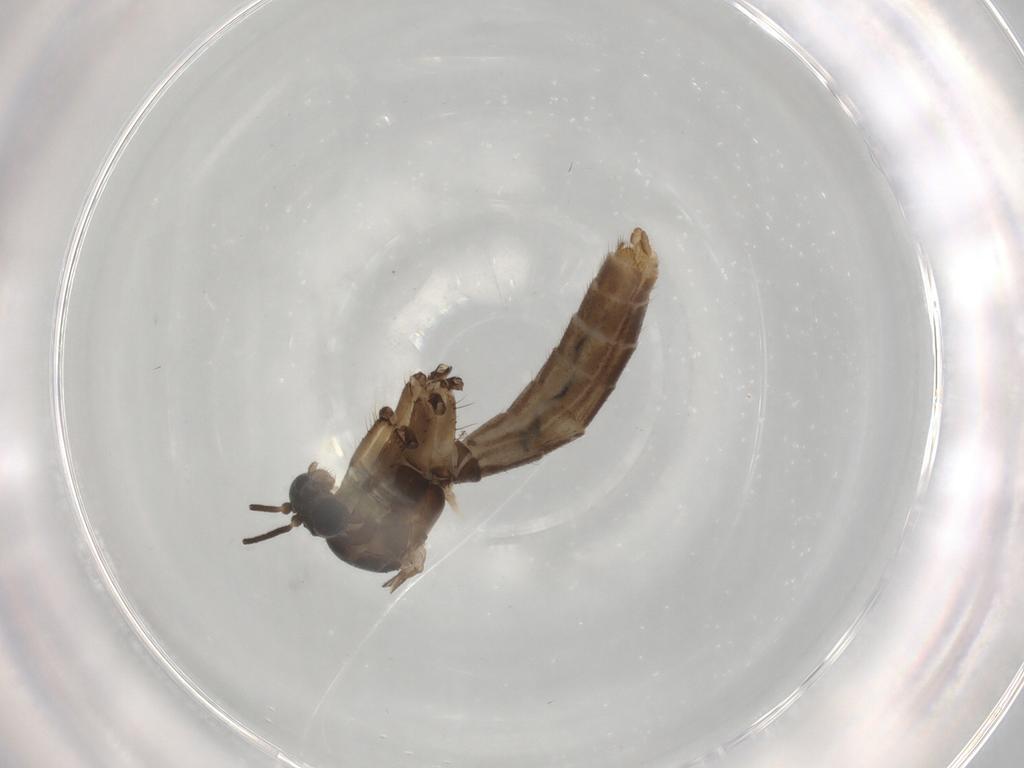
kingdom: Animalia
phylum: Arthropoda
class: Insecta
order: Diptera
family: Mycetophilidae
